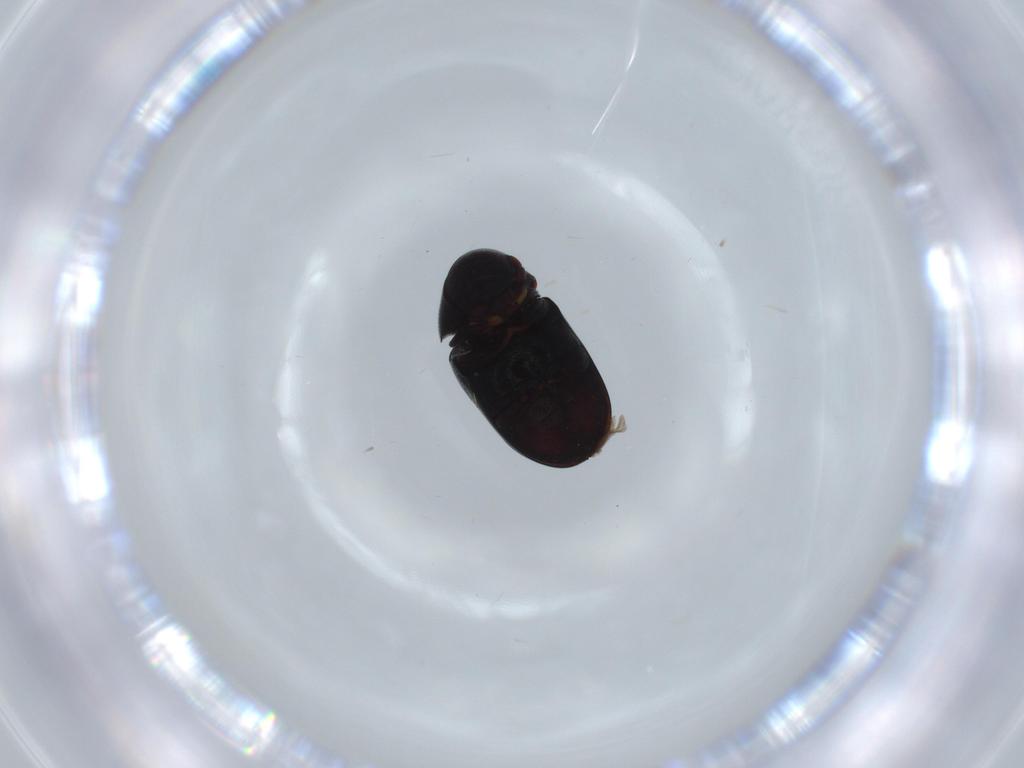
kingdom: Animalia
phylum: Arthropoda
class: Insecta
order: Coleoptera
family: Ptinidae
